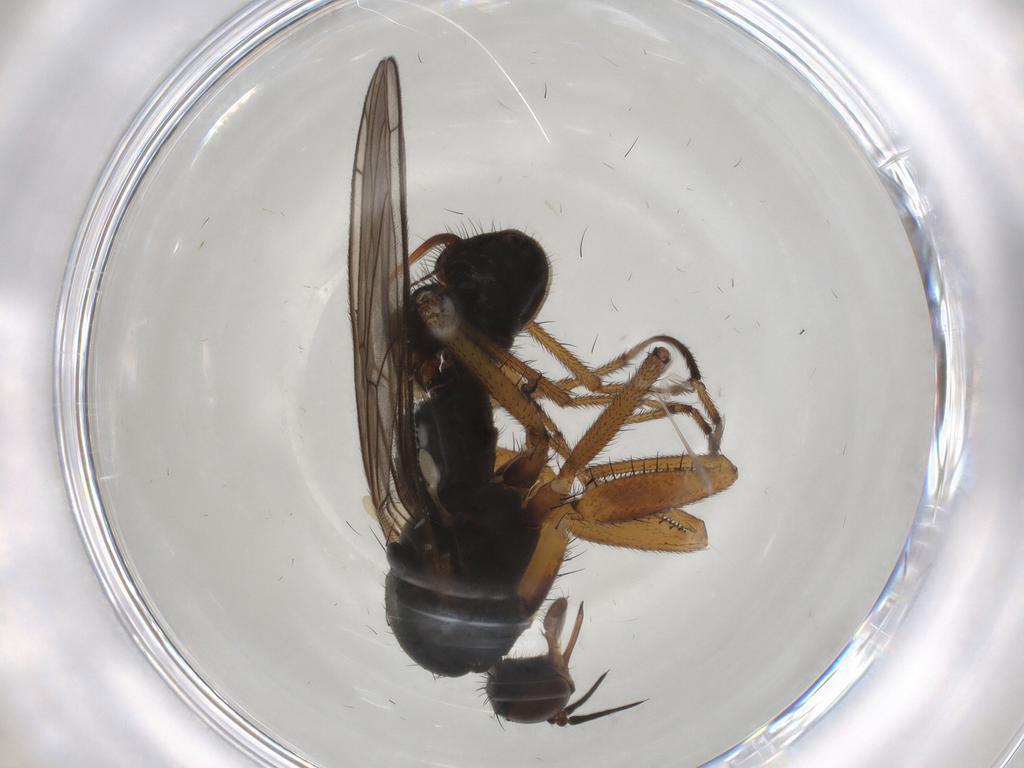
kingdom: Animalia
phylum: Arthropoda
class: Insecta
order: Diptera
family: Empididae
